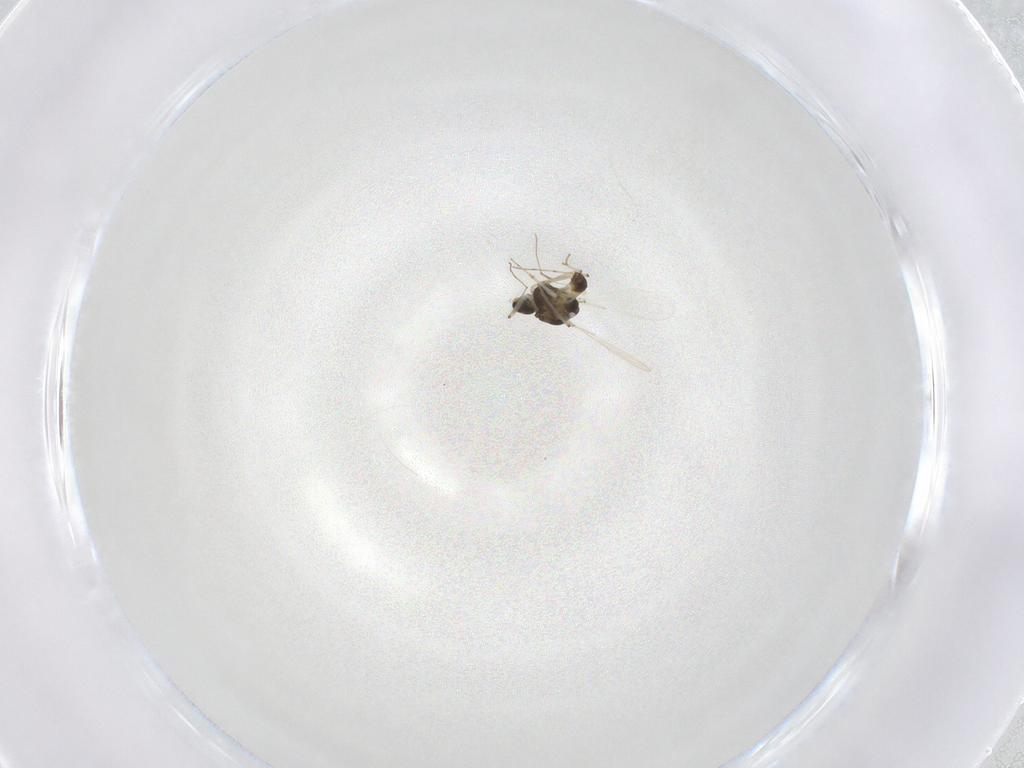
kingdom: Animalia
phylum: Arthropoda
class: Insecta
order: Diptera
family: Chironomidae
